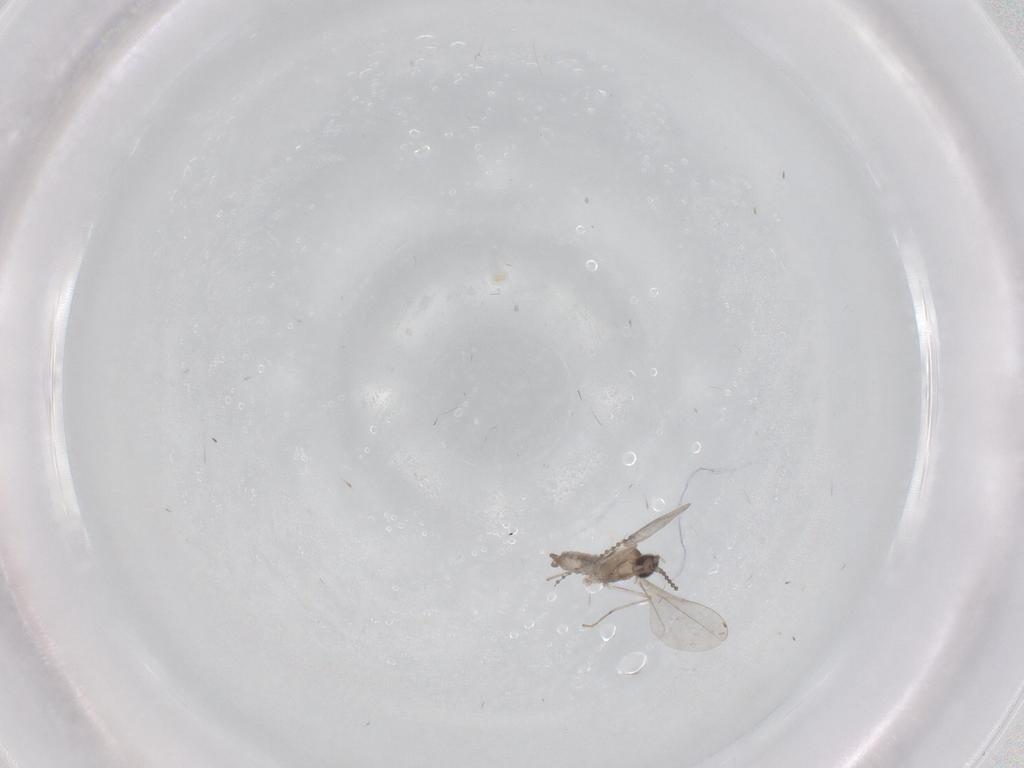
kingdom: Animalia
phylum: Arthropoda
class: Insecta
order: Diptera
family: Cecidomyiidae
